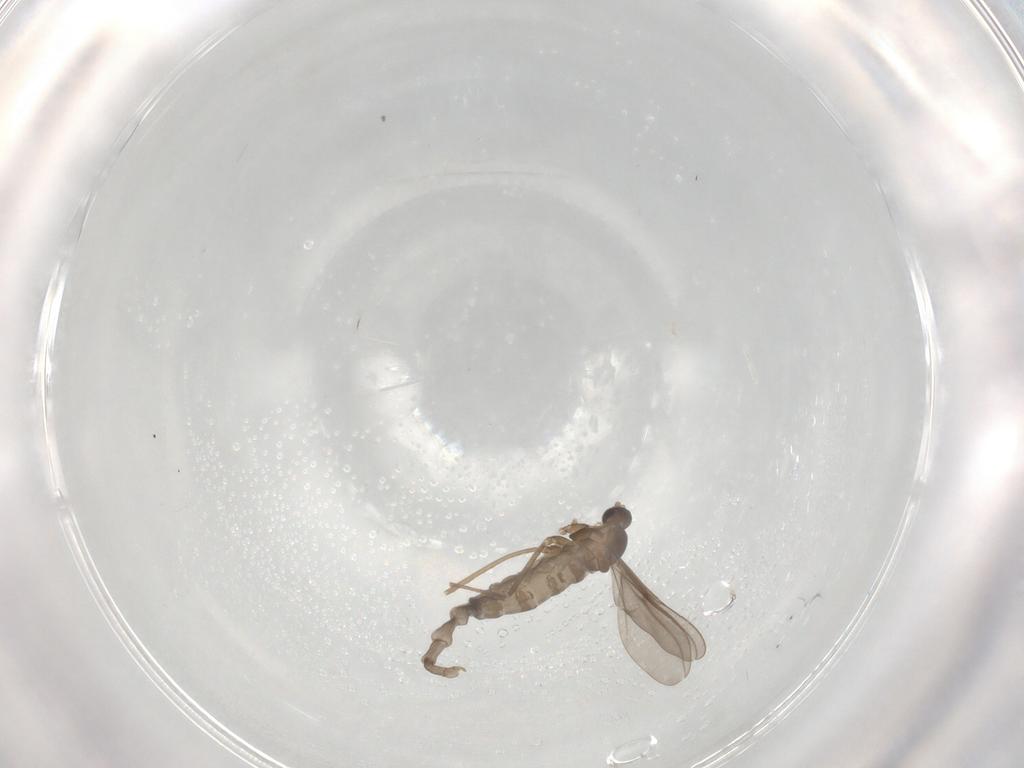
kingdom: Animalia
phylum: Arthropoda
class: Insecta
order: Diptera
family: Cecidomyiidae
